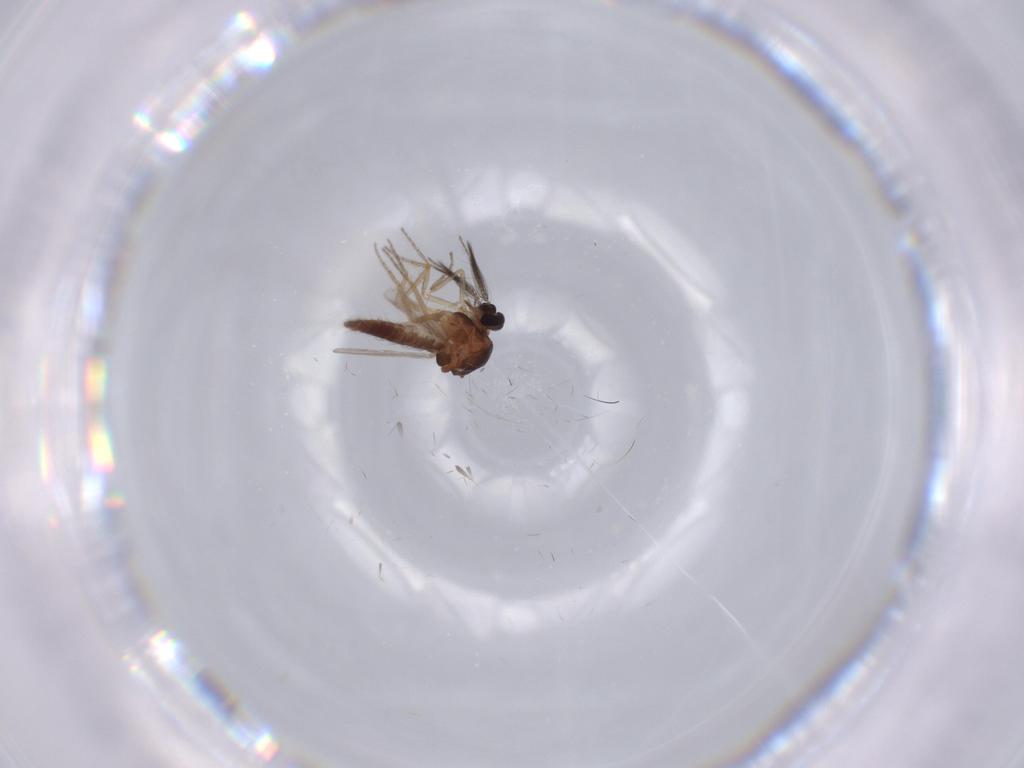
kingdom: Animalia
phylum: Arthropoda
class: Insecta
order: Diptera
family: Ceratopogonidae
